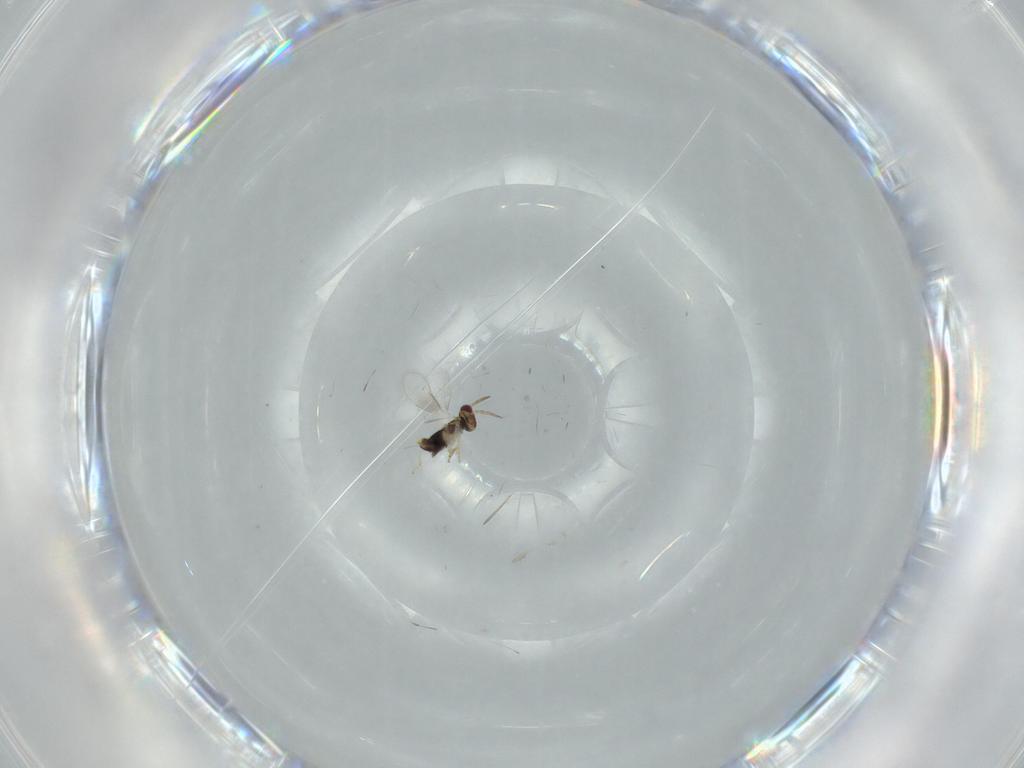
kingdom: Animalia
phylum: Arthropoda
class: Insecta
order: Hymenoptera
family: Aphelinidae
